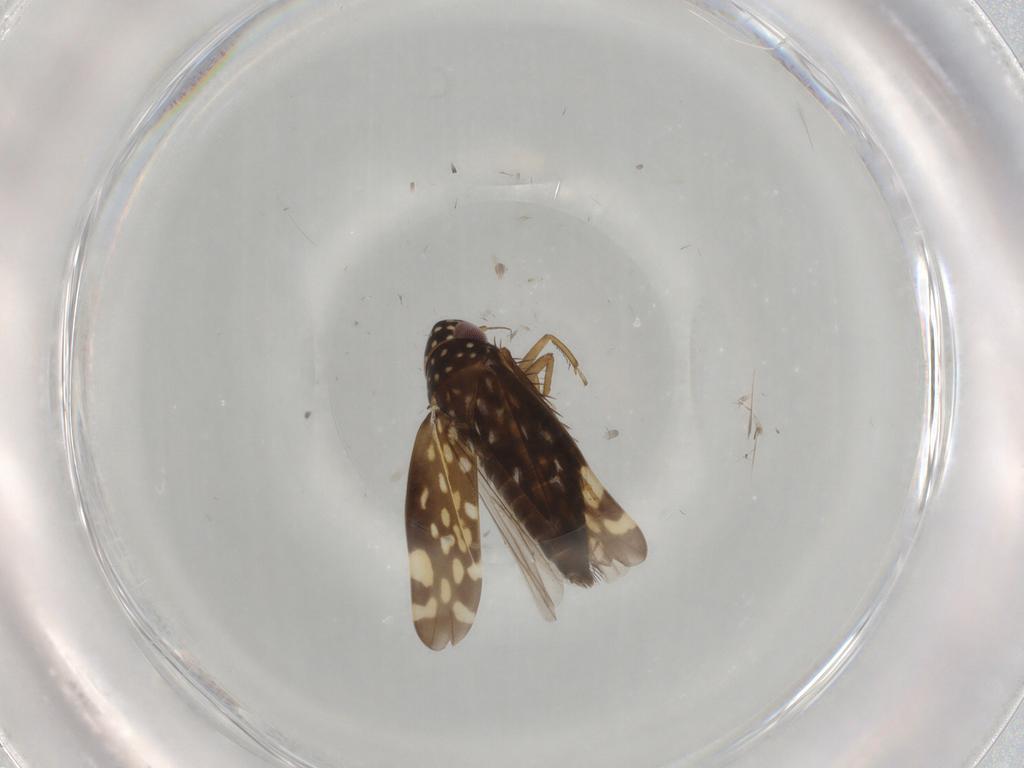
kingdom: Animalia
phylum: Arthropoda
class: Insecta
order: Hemiptera
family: Cicadellidae
